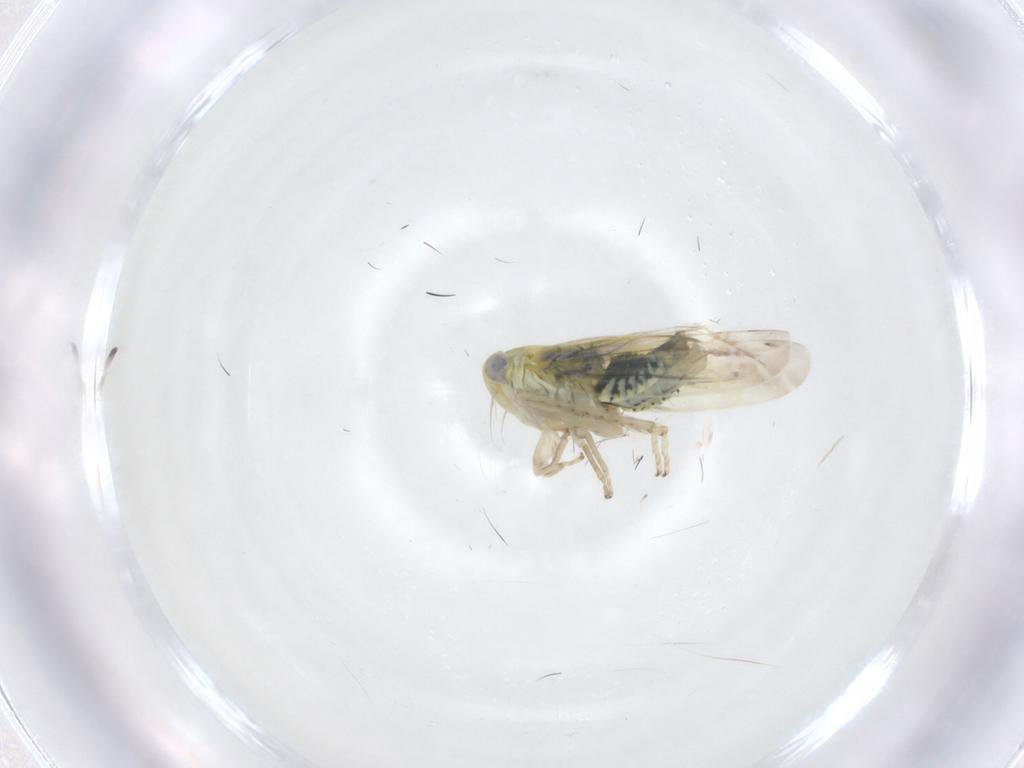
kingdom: Animalia
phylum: Arthropoda
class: Insecta
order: Hemiptera
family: Cicadellidae
